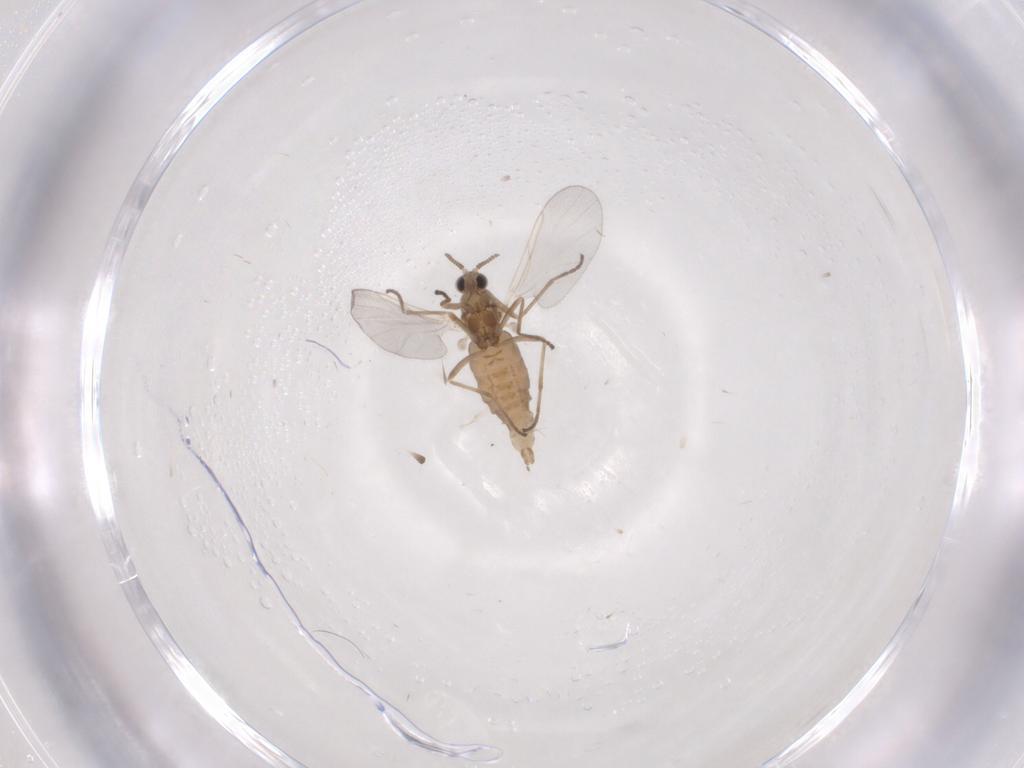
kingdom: Animalia
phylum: Arthropoda
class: Insecta
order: Diptera
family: Cecidomyiidae
